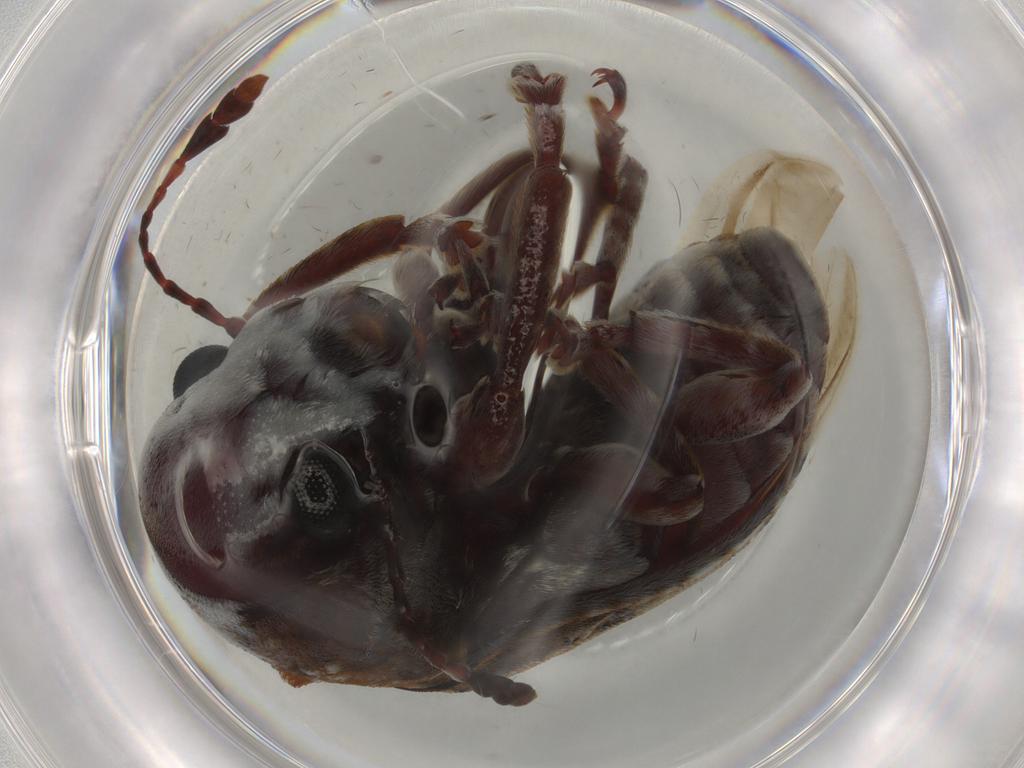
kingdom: Animalia
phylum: Arthropoda
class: Insecta
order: Coleoptera
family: Anthribidae
